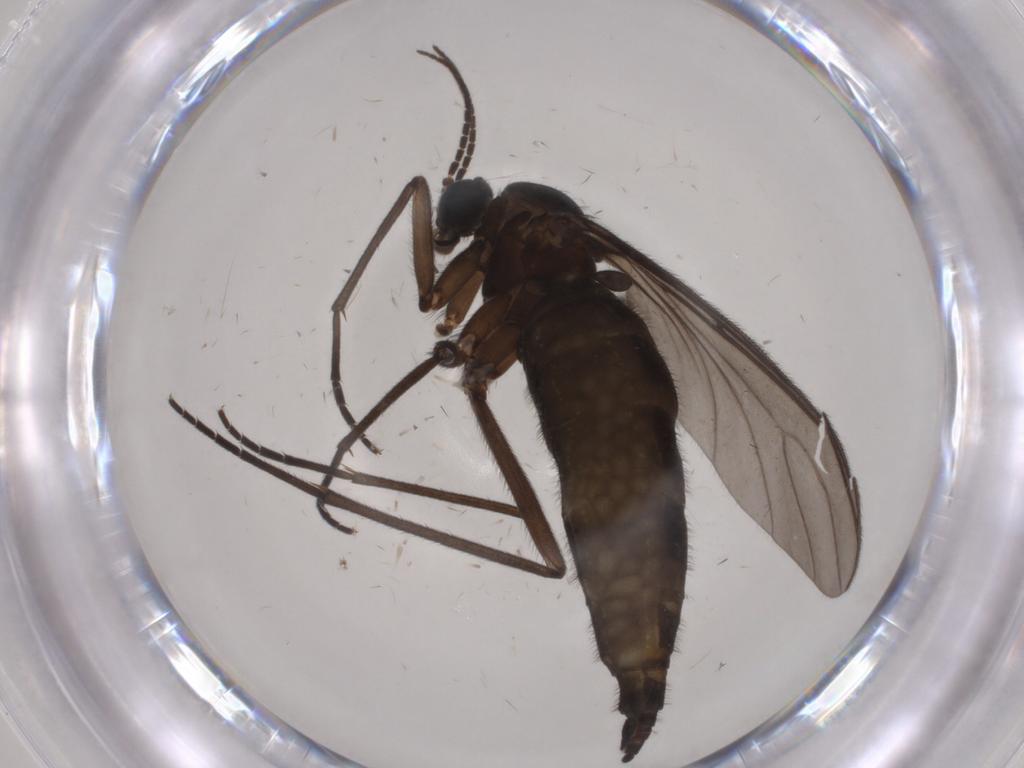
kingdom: Animalia
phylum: Arthropoda
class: Insecta
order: Diptera
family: Sciaridae
